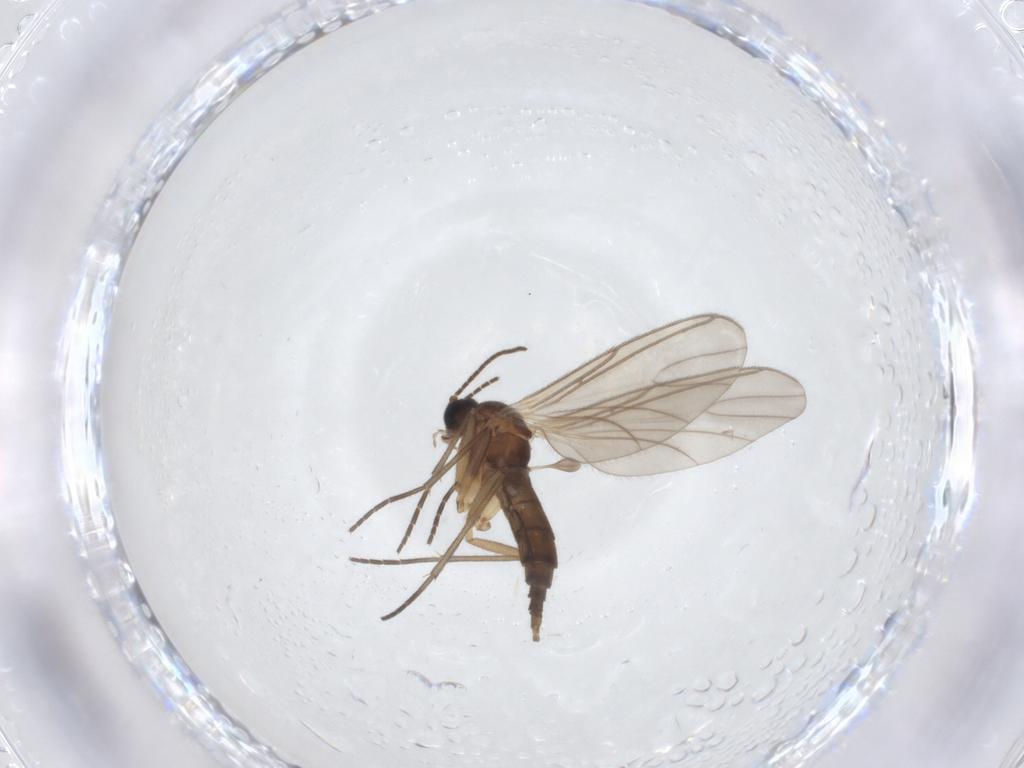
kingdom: Animalia
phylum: Arthropoda
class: Insecta
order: Diptera
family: Sciaridae
